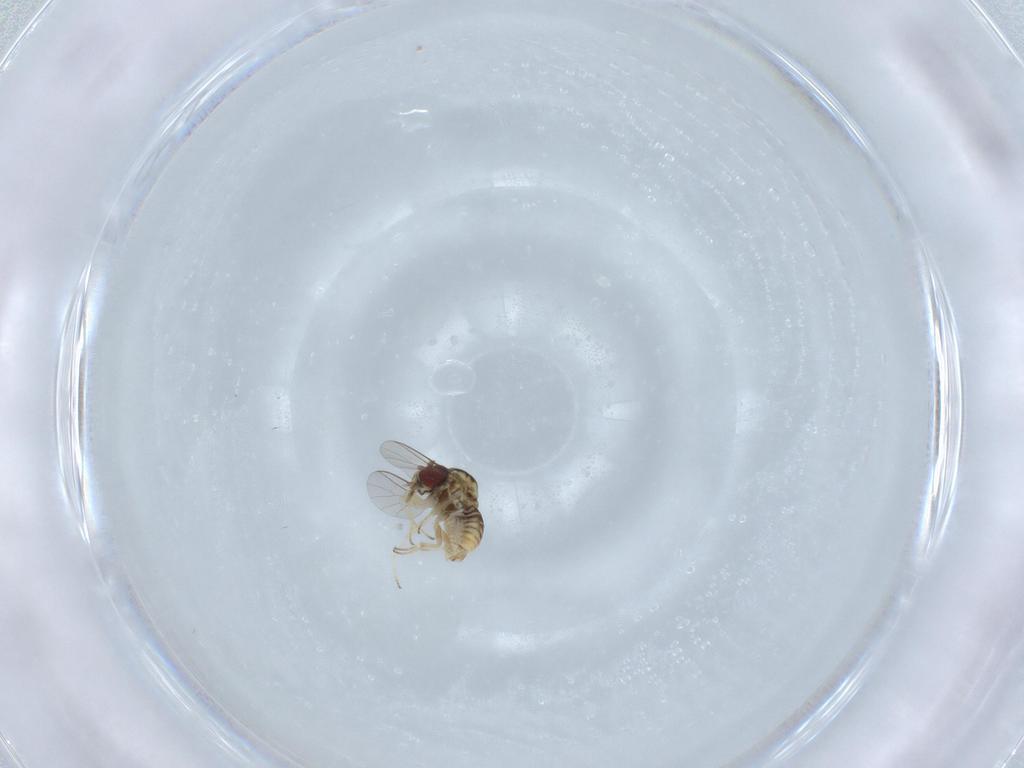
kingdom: Animalia
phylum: Arthropoda
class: Insecta
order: Diptera
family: Bombyliidae
